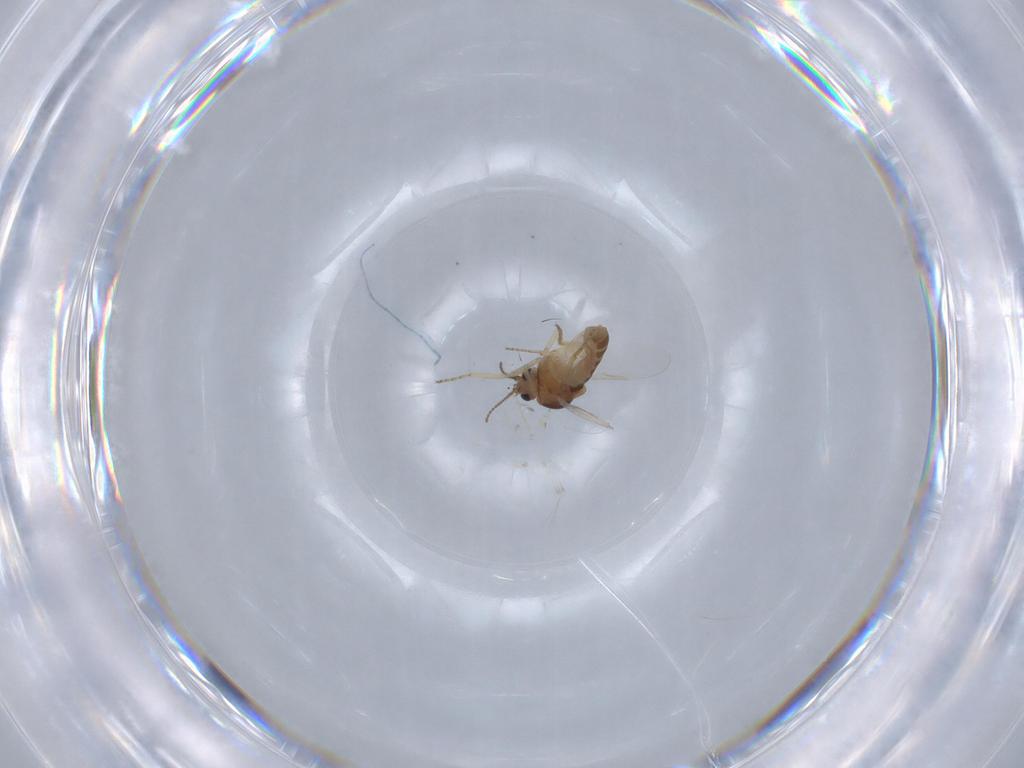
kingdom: Animalia
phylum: Arthropoda
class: Insecta
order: Diptera
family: Ceratopogonidae
